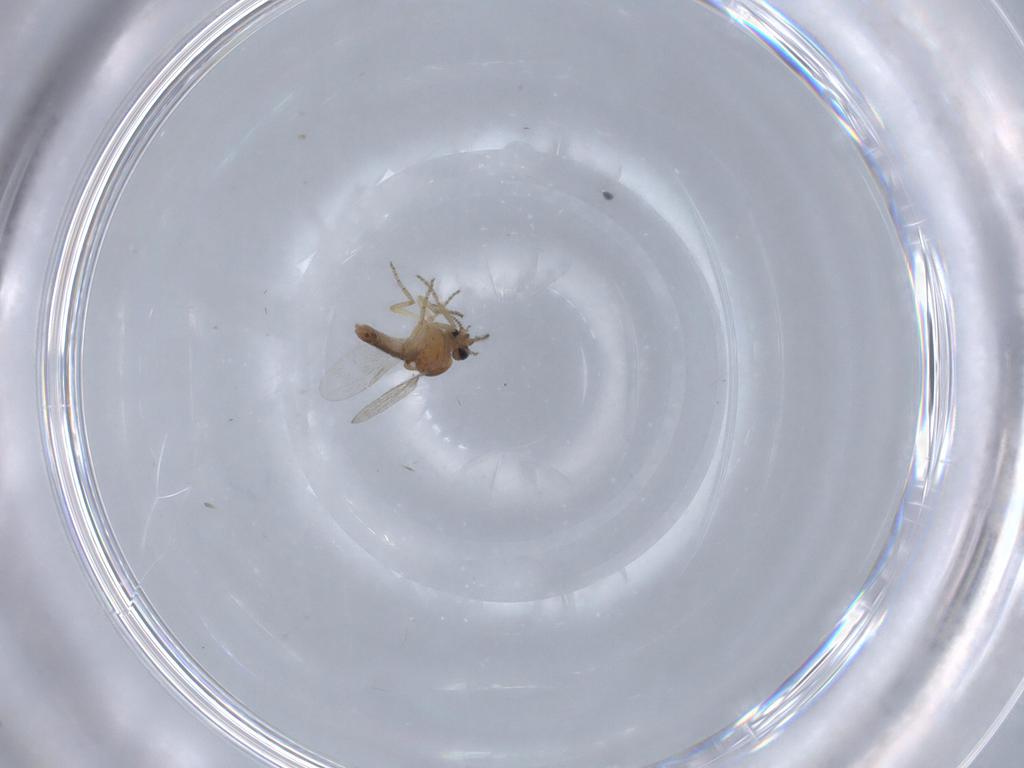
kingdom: Animalia
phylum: Arthropoda
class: Insecta
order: Diptera
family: Ceratopogonidae
